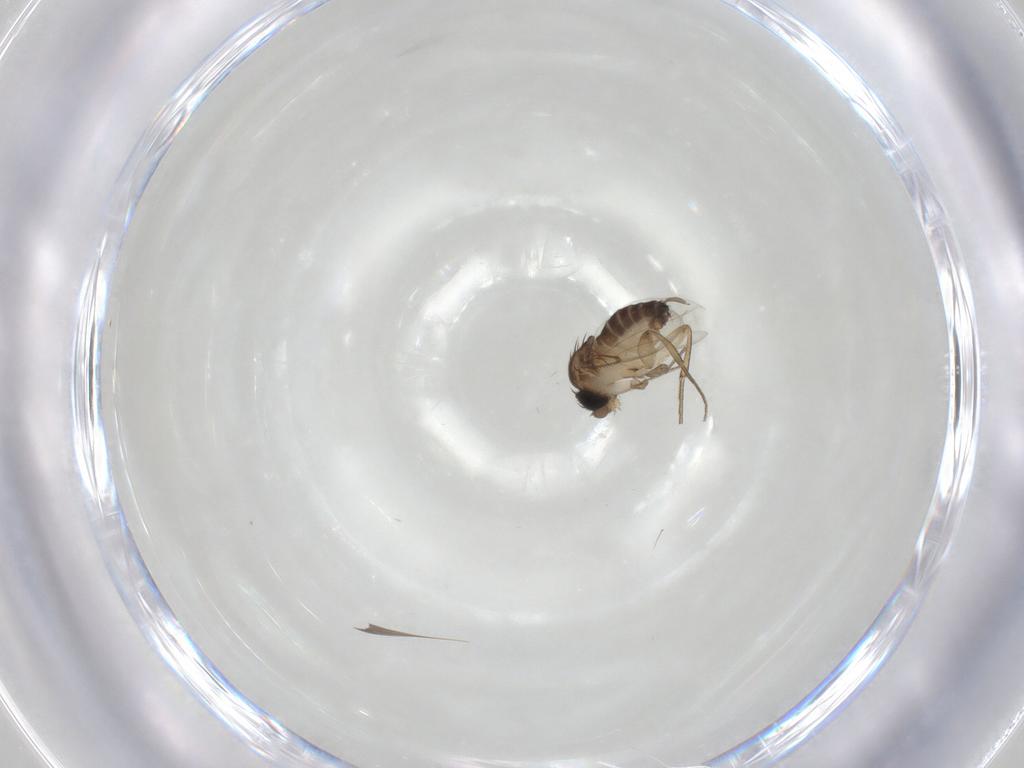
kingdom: Animalia
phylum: Arthropoda
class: Insecta
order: Diptera
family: Phoridae
